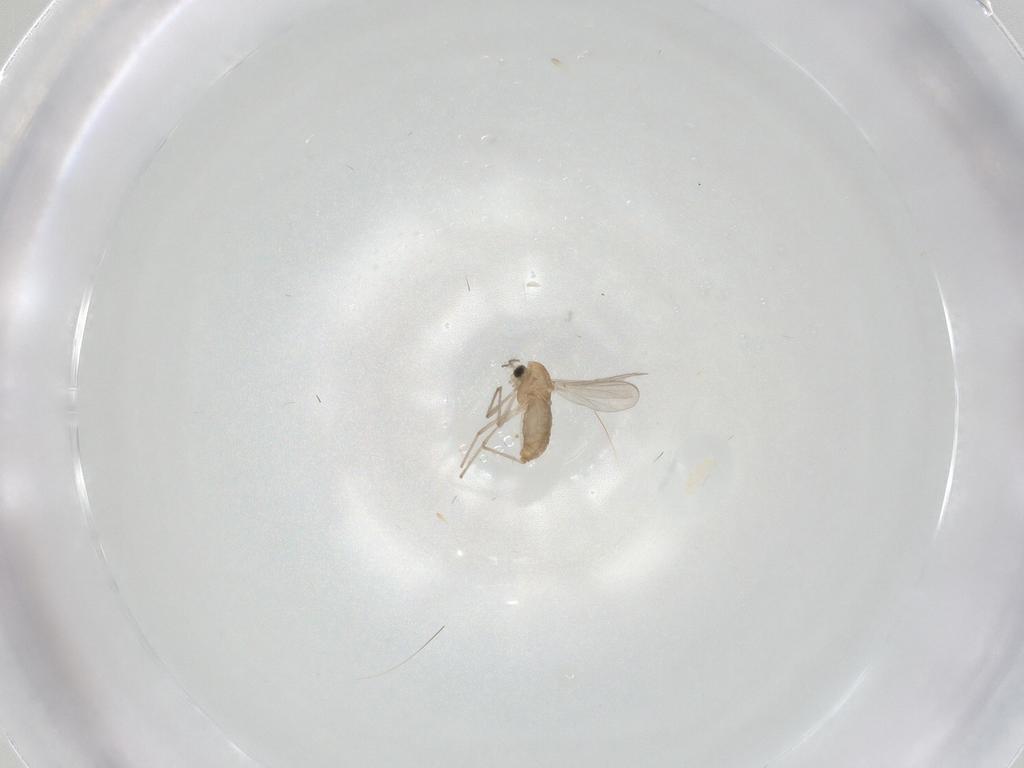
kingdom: Animalia
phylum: Arthropoda
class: Insecta
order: Diptera
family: Chironomidae
